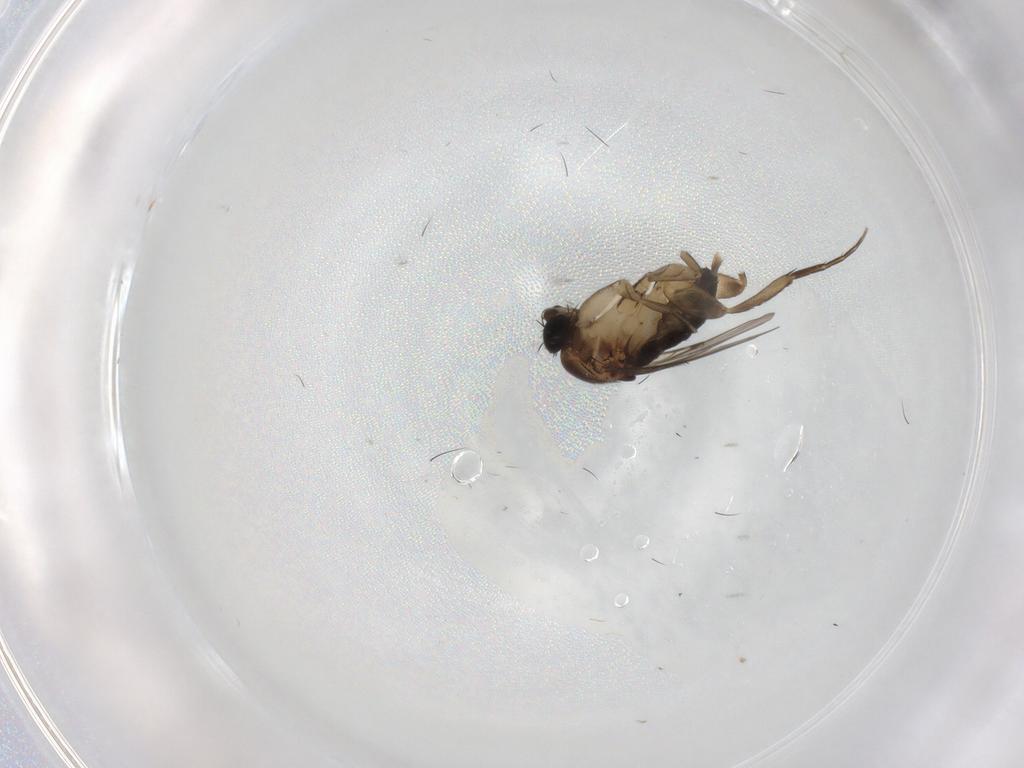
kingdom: Animalia
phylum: Arthropoda
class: Insecta
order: Diptera
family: Phoridae
